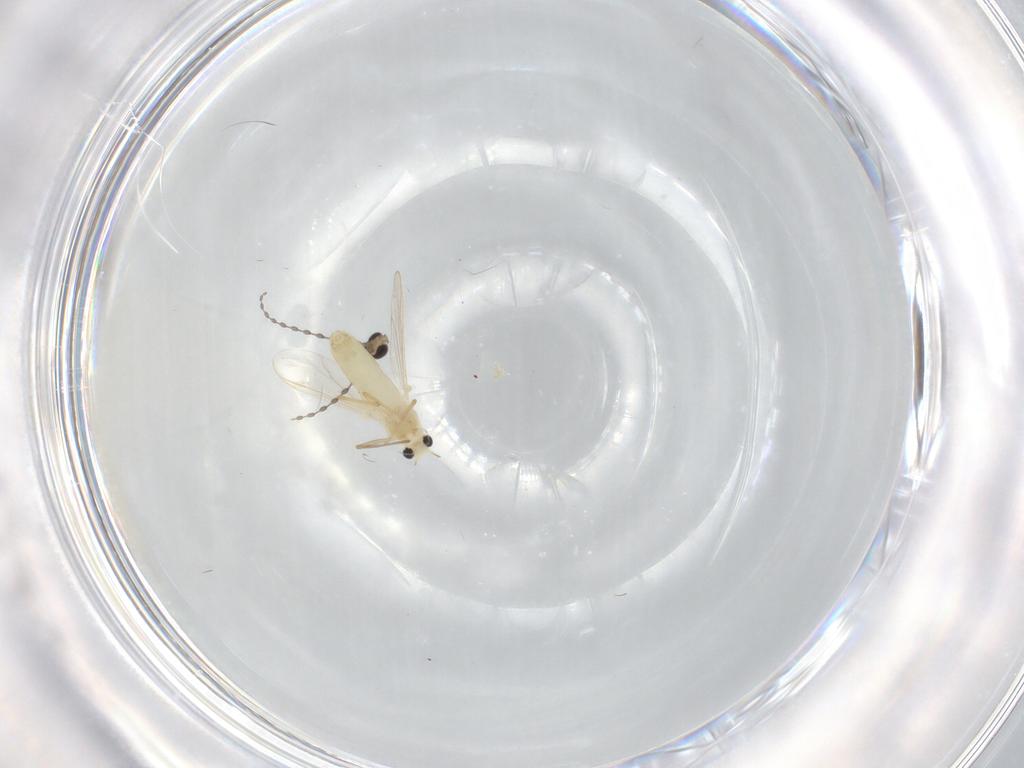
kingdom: Animalia
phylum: Arthropoda
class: Insecta
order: Diptera
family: Chironomidae
